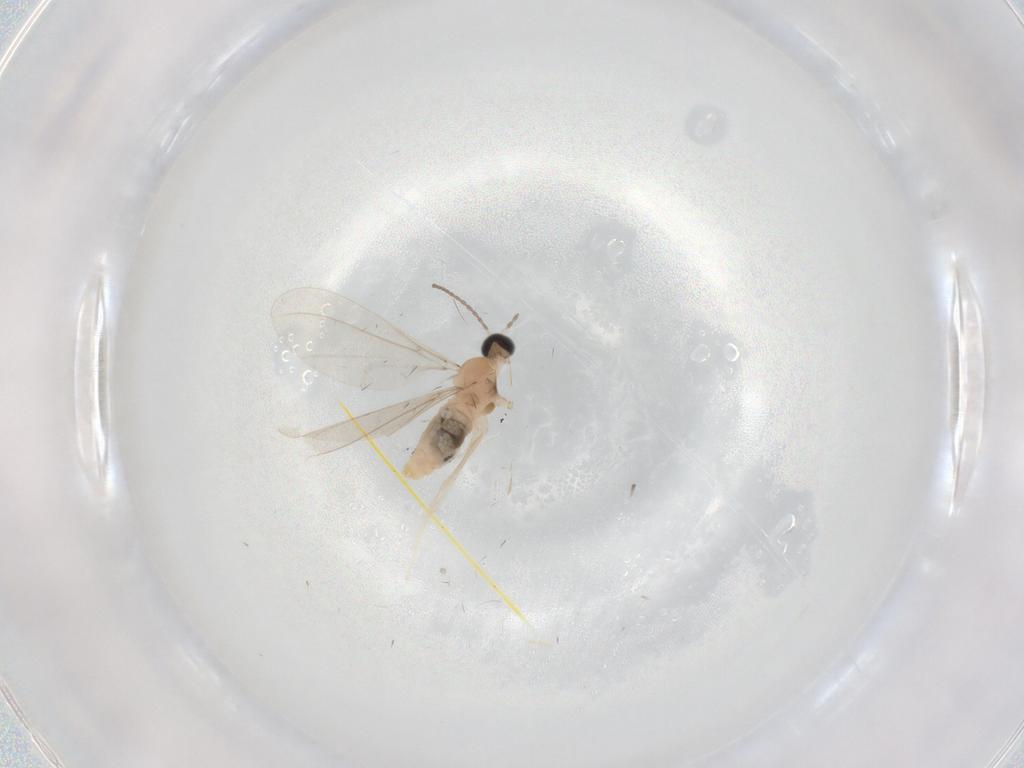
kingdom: Animalia
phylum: Arthropoda
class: Insecta
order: Diptera
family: Cecidomyiidae
